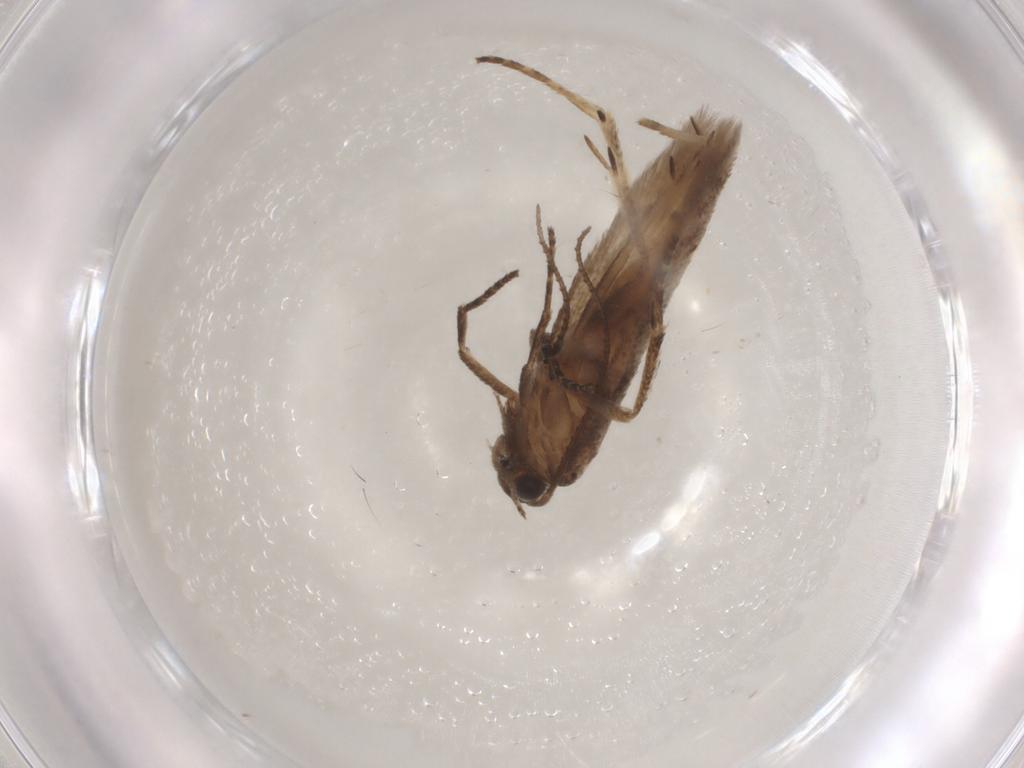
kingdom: Animalia
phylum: Arthropoda
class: Insecta
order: Lepidoptera
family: Gelechiidae
